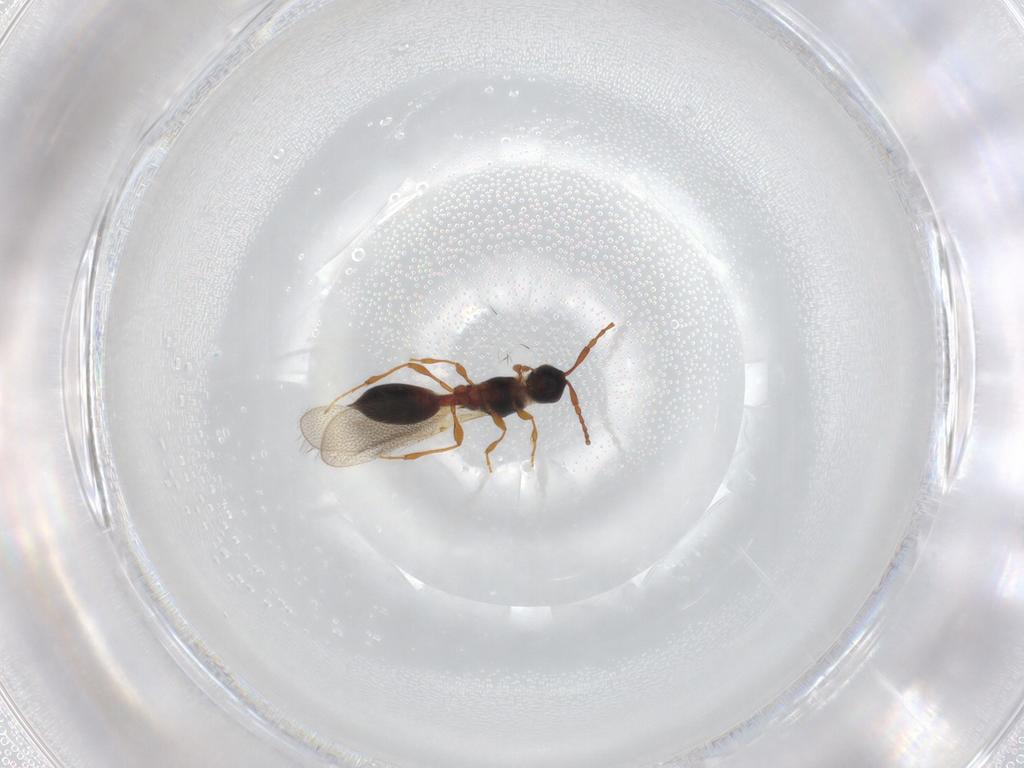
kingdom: Animalia
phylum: Arthropoda
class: Insecta
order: Hymenoptera
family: Diapriidae
